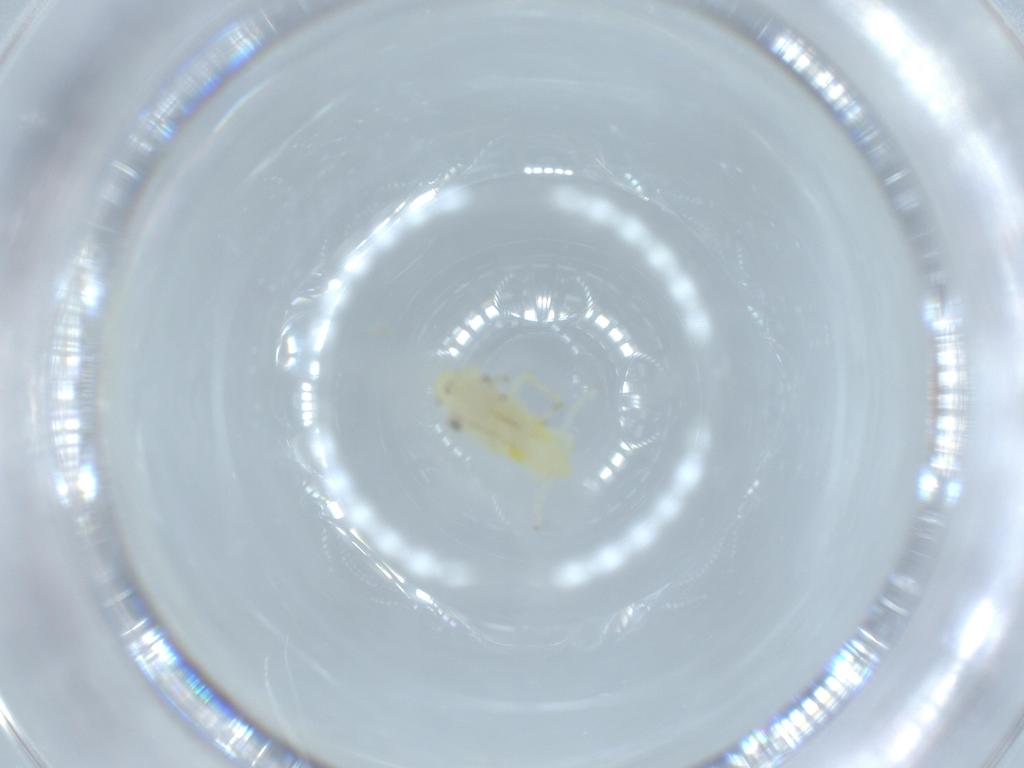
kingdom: Animalia
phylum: Arthropoda
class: Insecta
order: Hemiptera
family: Cicadellidae
